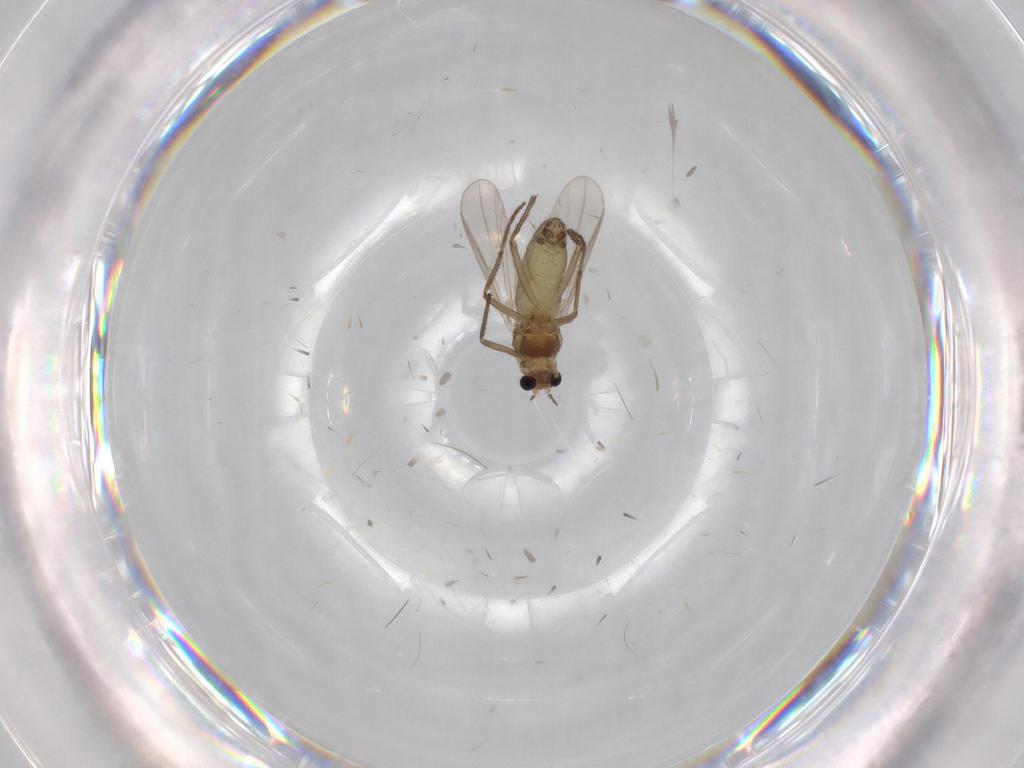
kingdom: Animalia
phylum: Arthropoda
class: Insecta
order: Diptera
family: Chironomidae
